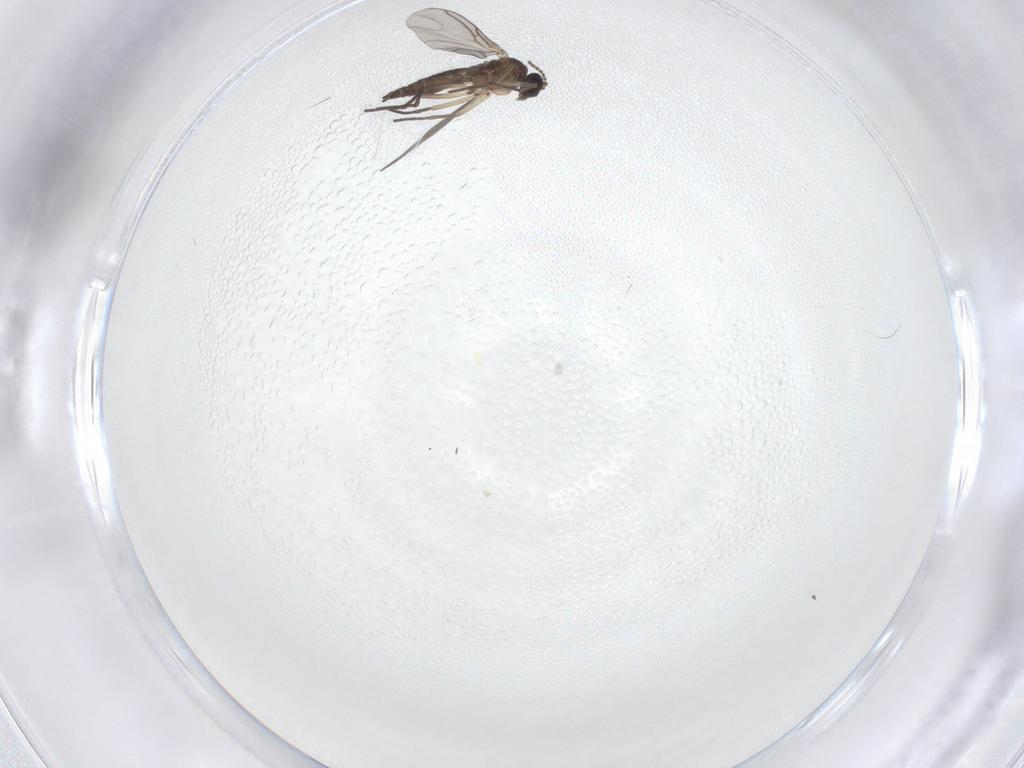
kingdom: Animalia
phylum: Arthropoda
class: Insecta
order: Diptera
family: Sciaridae
